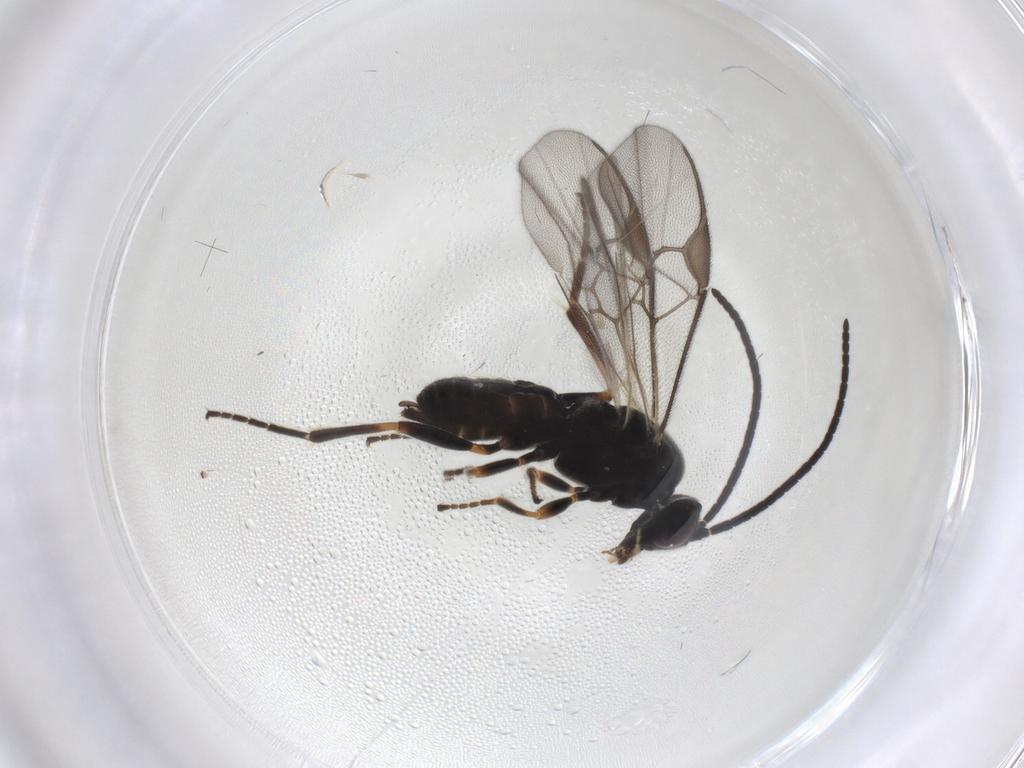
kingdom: Animalia
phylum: Arthropoda
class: Insecta
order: Hymenoptera
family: Braconidae
